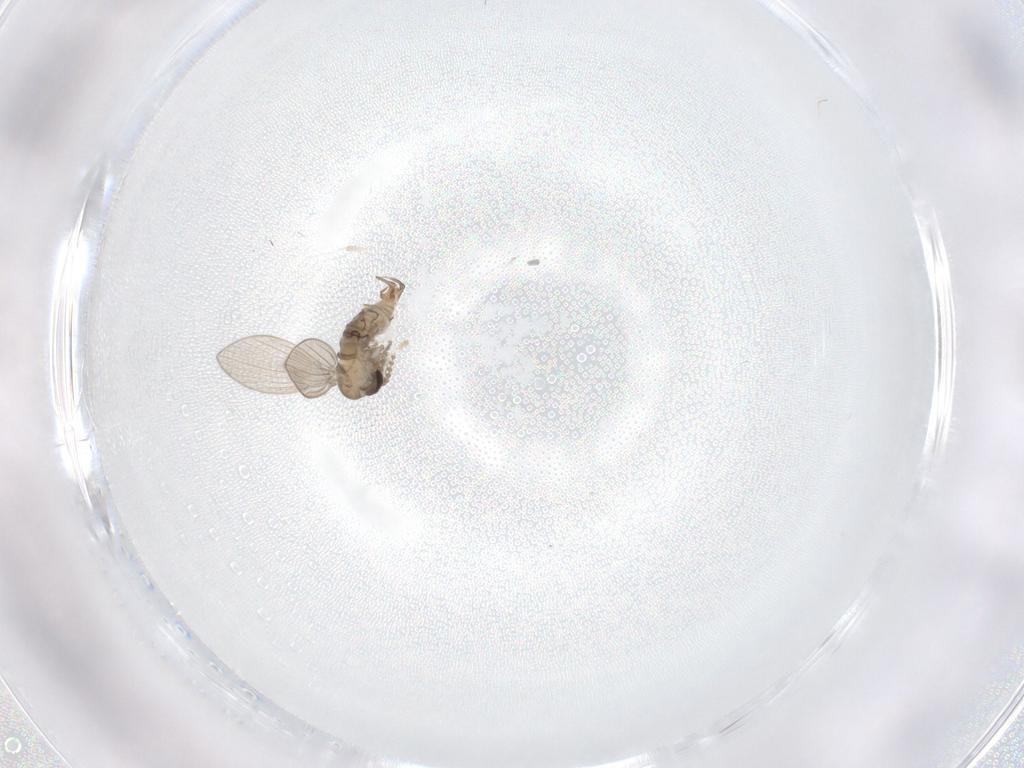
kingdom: Animalia
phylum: Arthropoda
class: Insecta
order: Diptera
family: Psychodidae
